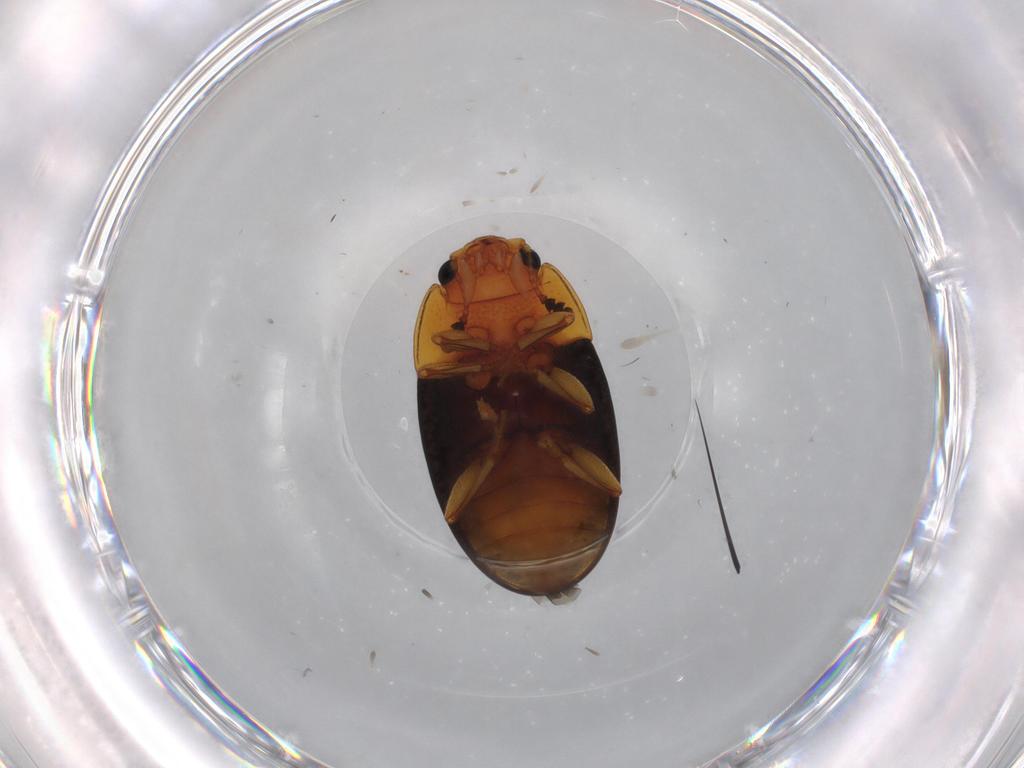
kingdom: Animalia
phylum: Arthropoda
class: Insecta
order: Coleoptera
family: Erotylidae
